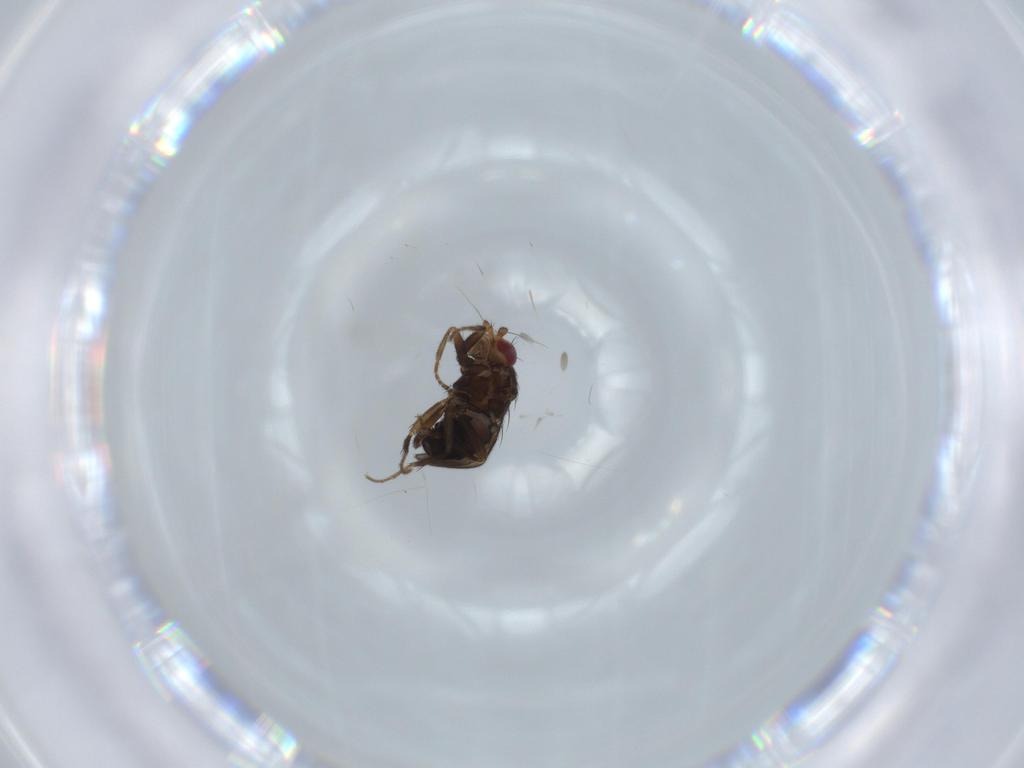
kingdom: Animalia
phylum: Arthropoda
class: Insecta
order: Diptera
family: Sphaeroceridae
